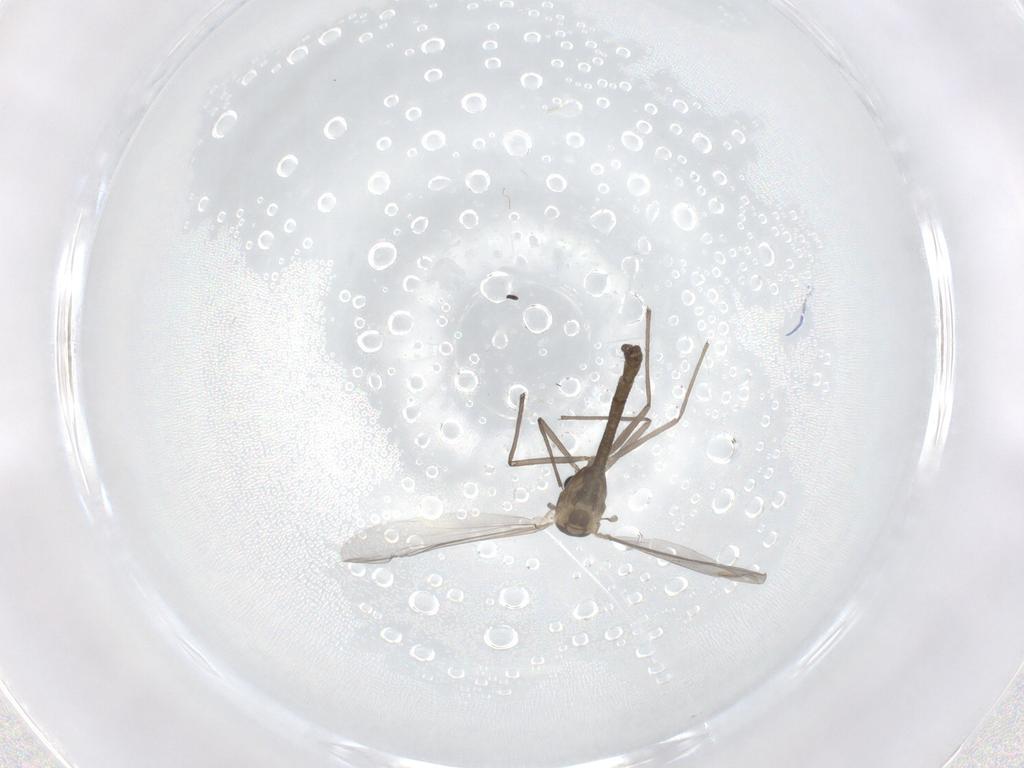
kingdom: Animalia
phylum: Arthropoda
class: Insecta
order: Diptera
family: Chironomidae
